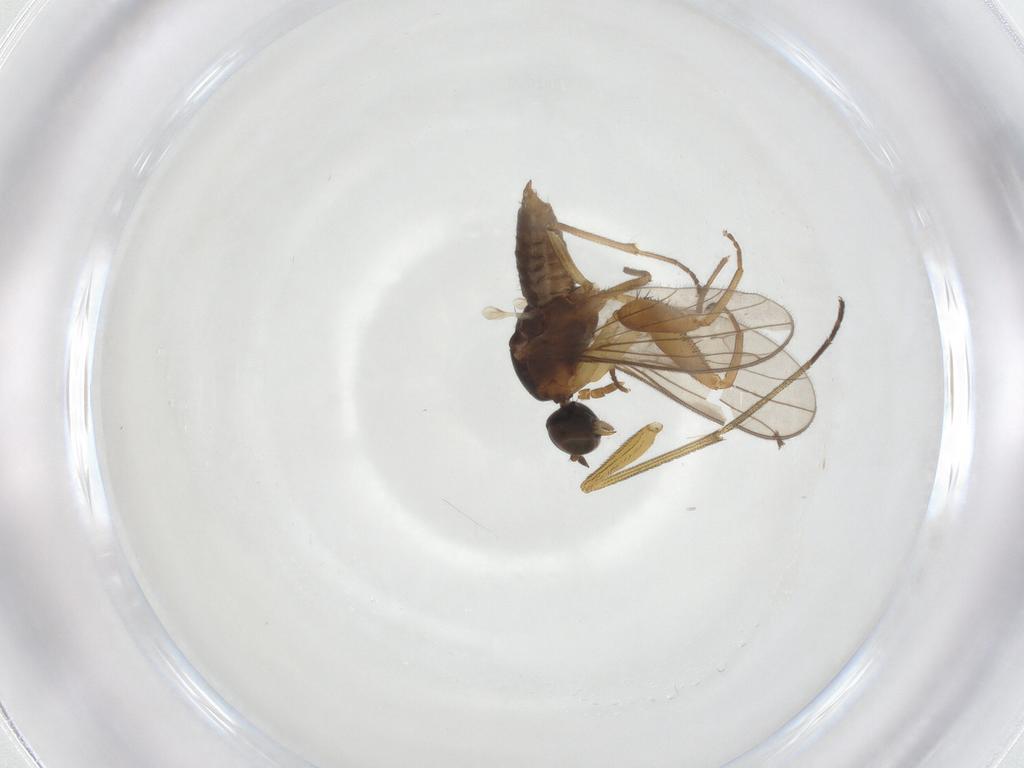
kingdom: Animalia
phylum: Arthropoda
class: Insecta
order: Diptera
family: Empididae
